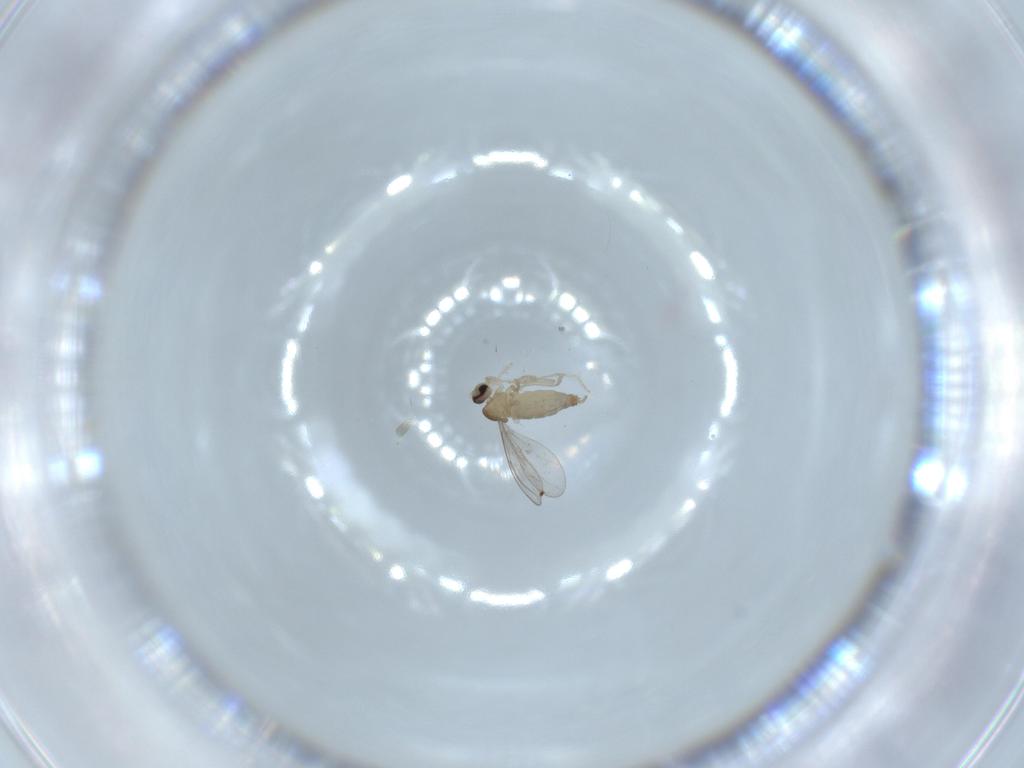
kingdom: Animalia
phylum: Arthropoda
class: Insecta
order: Diptera
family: Cecidomyiidae
